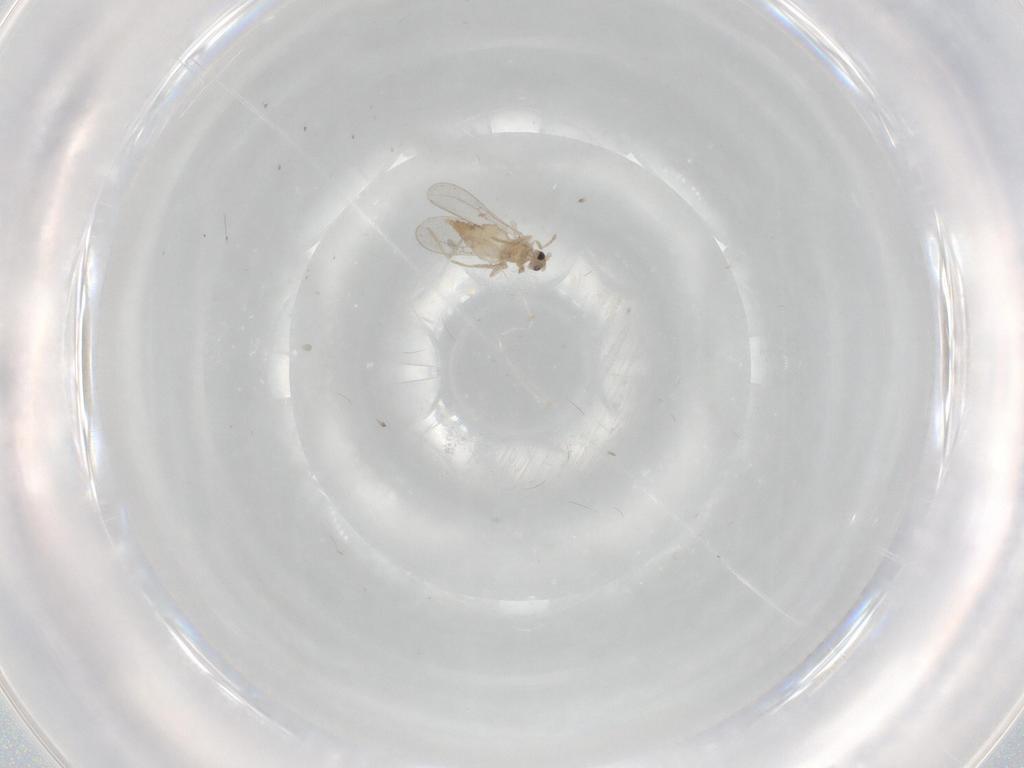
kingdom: Animalia
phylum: Arthropoda
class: Insecta
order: Diptera
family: Cecidomyiidae
